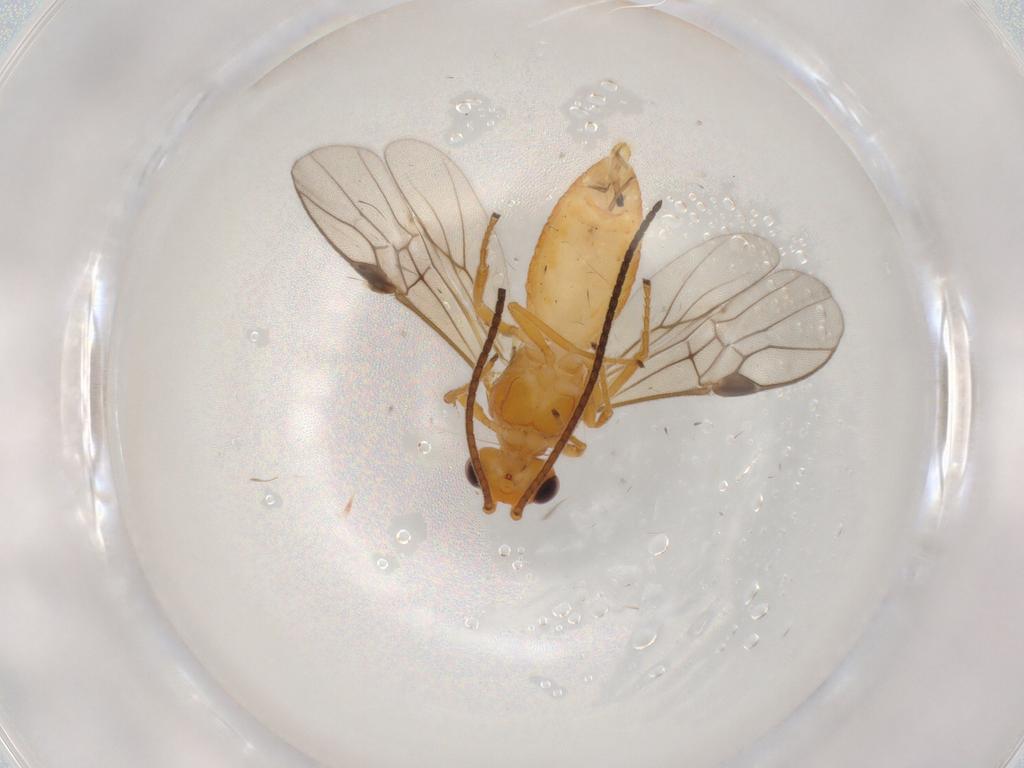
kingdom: Animalia
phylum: Arthropoda
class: Insecta
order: Hymenoptera
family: Braconidae
